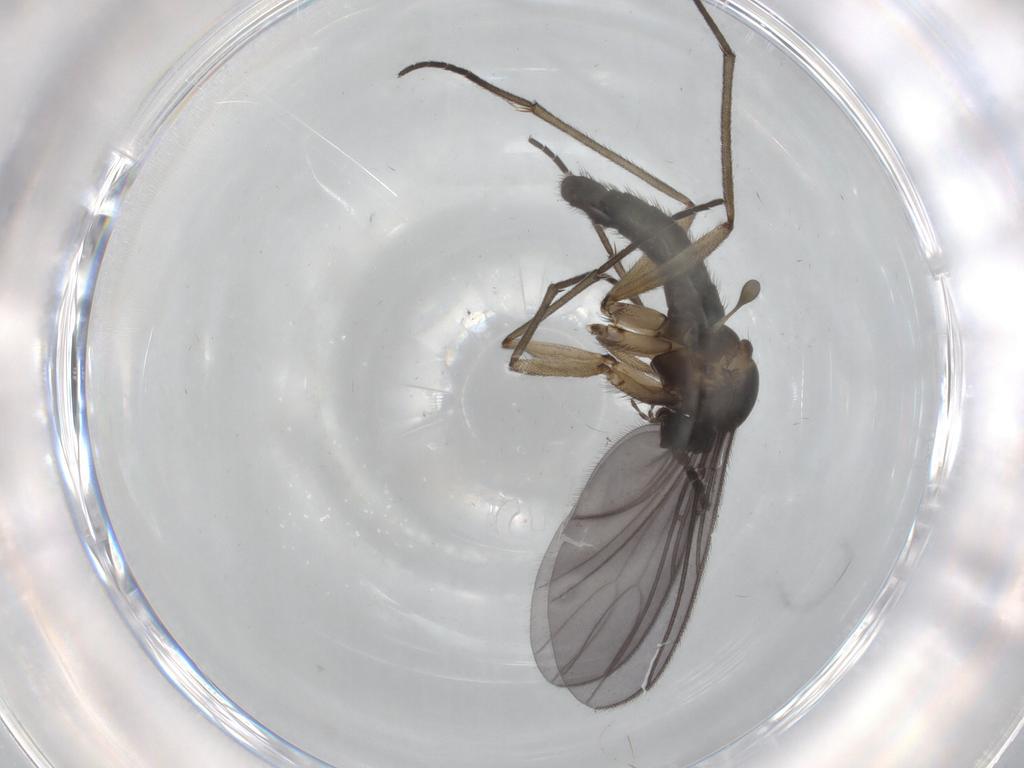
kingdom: Animalia
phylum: Arthropoda
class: Insecta
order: Diptera
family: Sciaridae
